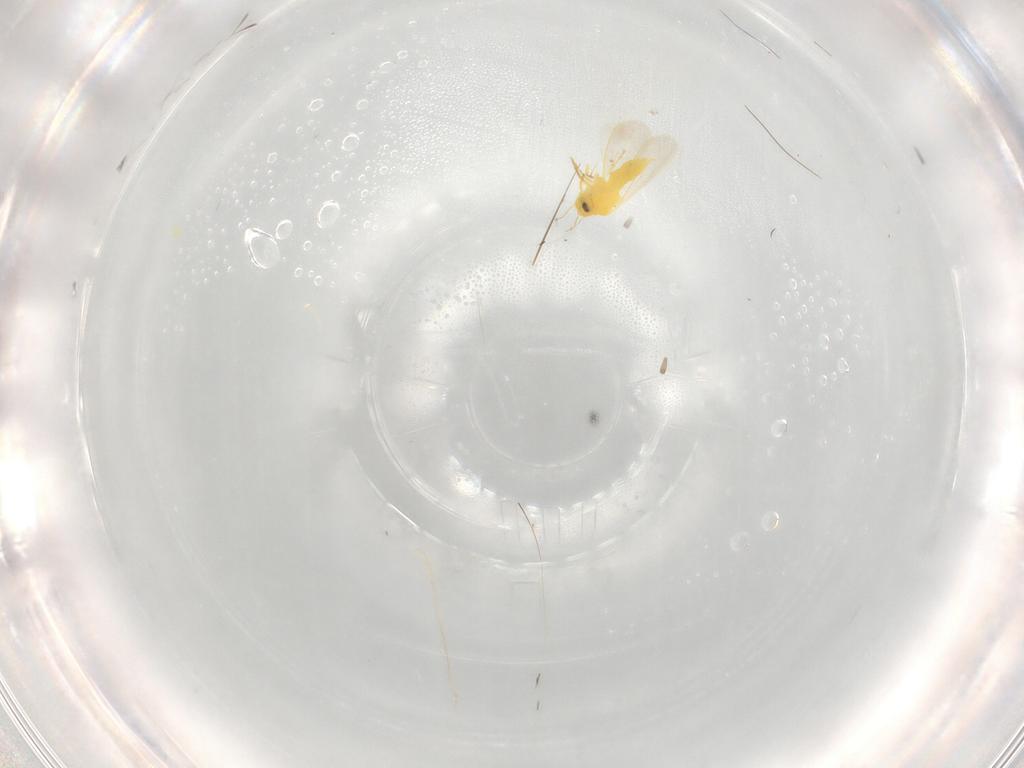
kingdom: Animalia
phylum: Arthropoda
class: Insecta
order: Hemiptera
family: Aleyrodidae
